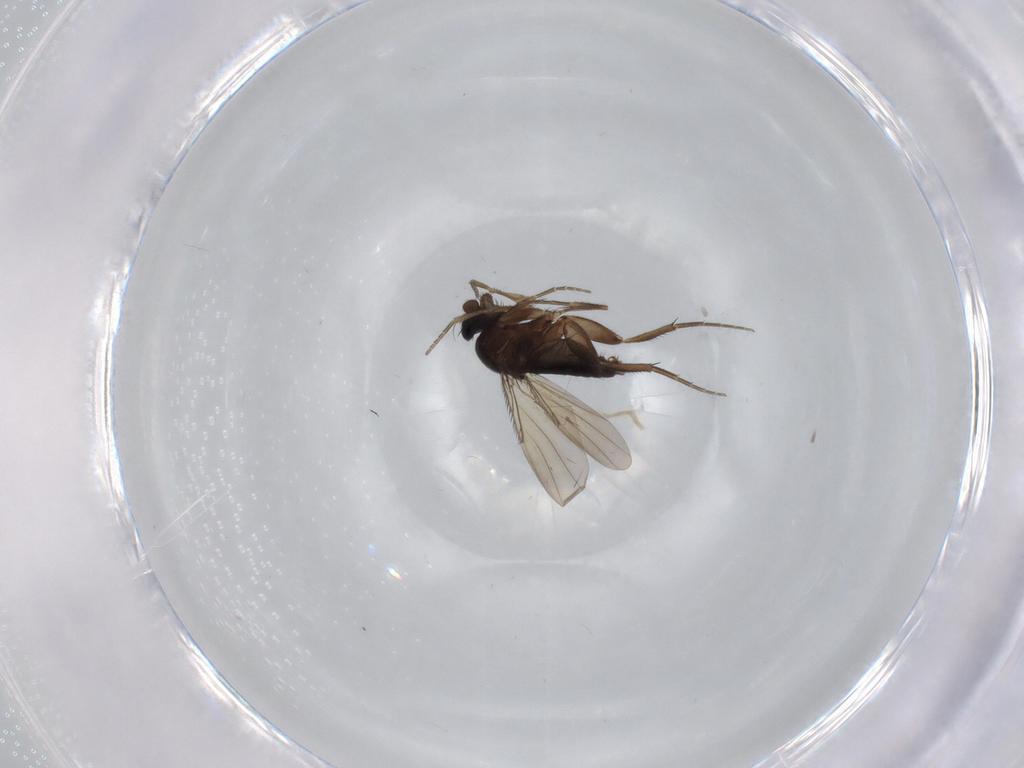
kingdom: Animalia
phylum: Arthropoda
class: Insecta
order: Diptera
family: Phoridae
